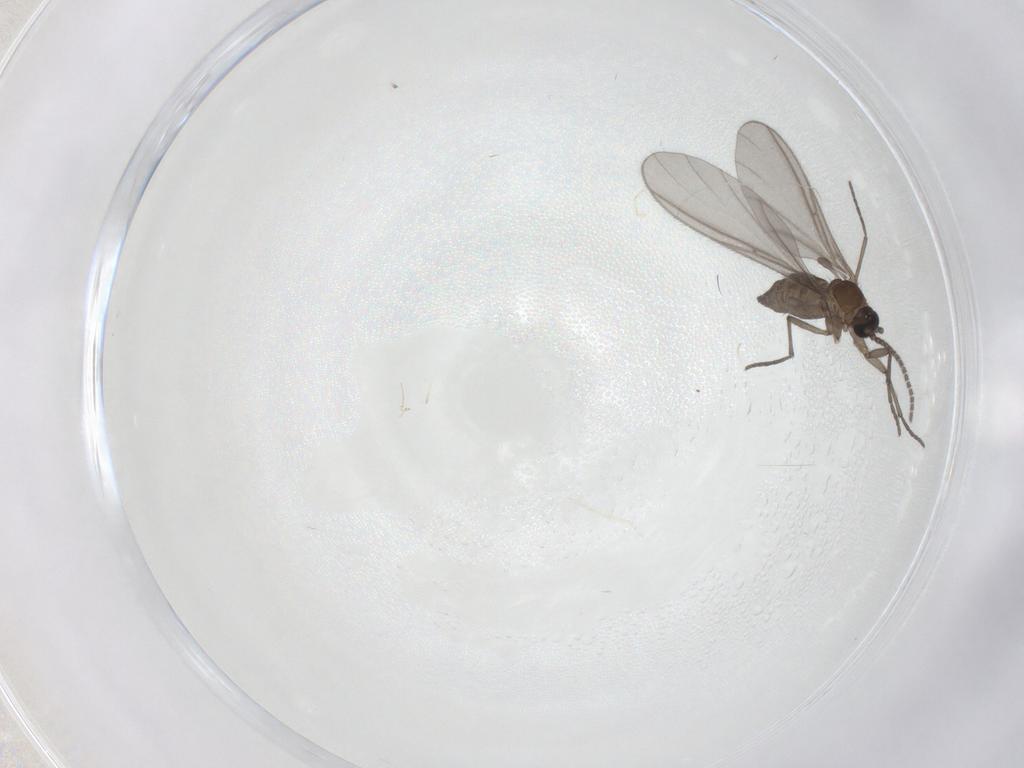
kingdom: Animalia
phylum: Arthropoda
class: Insecta
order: Diptera
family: Sciaridae
